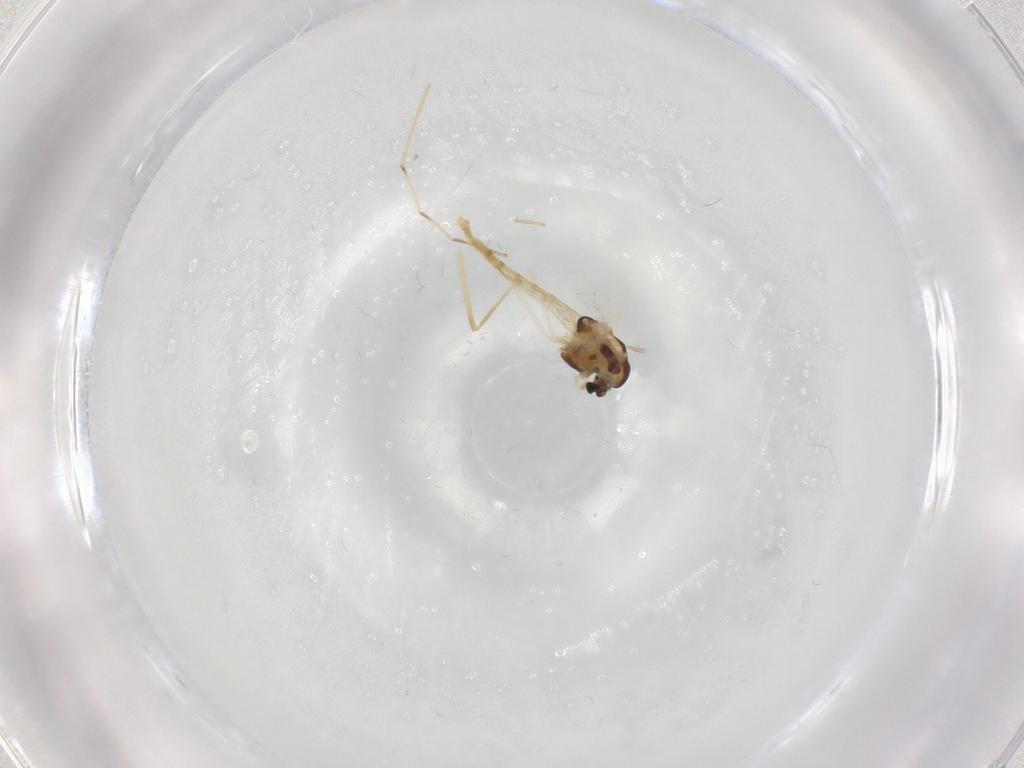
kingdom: Animalia
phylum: Arthropoda
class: Insecta
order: Diptera
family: Chironomidae
